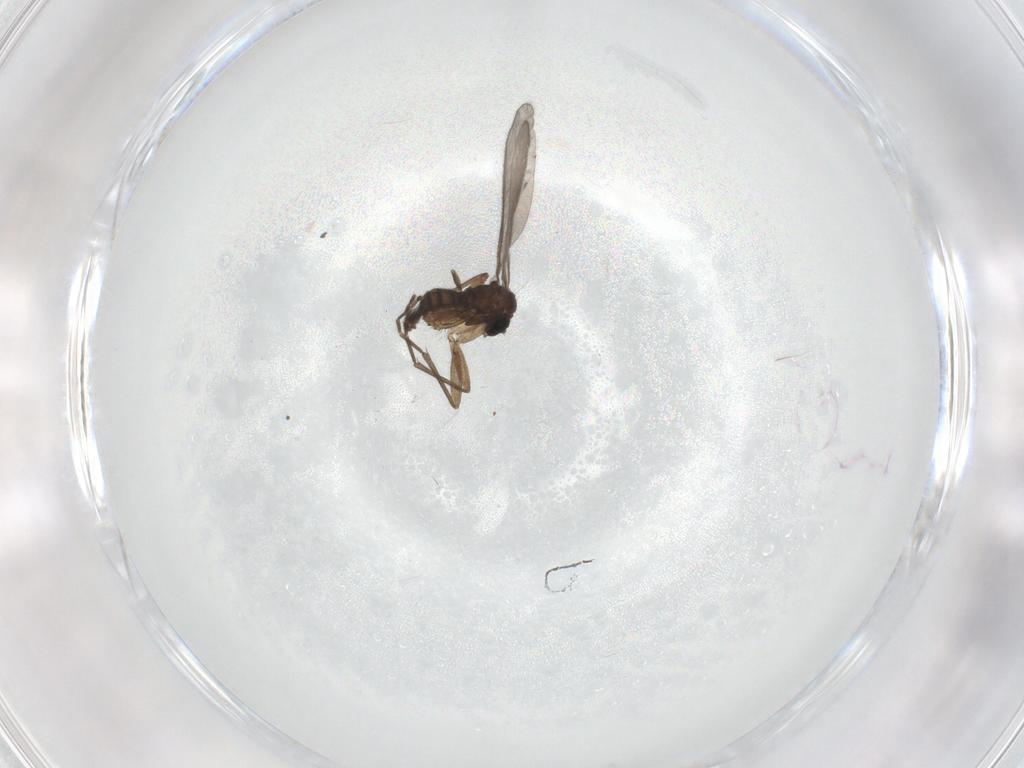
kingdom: Animalia
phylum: Arthropoda
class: Insecta
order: Diptera
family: Sciaridae
